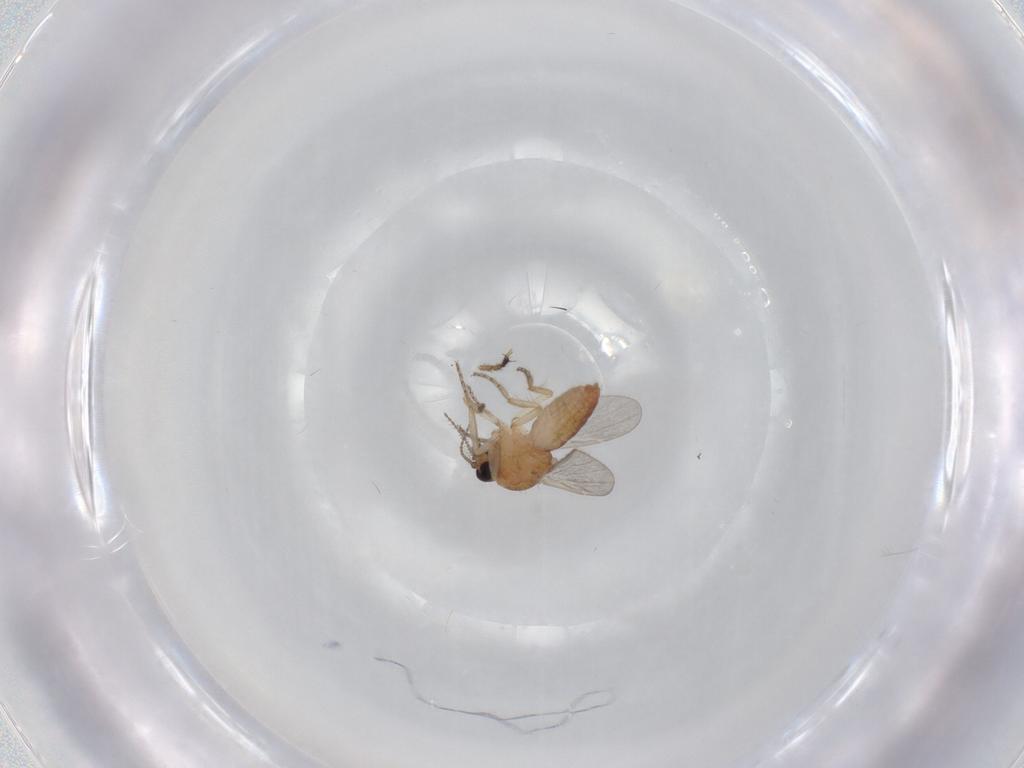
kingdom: Animalia
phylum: Arthropoda
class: Insecta
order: Diptera
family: Ceratopogonidae
